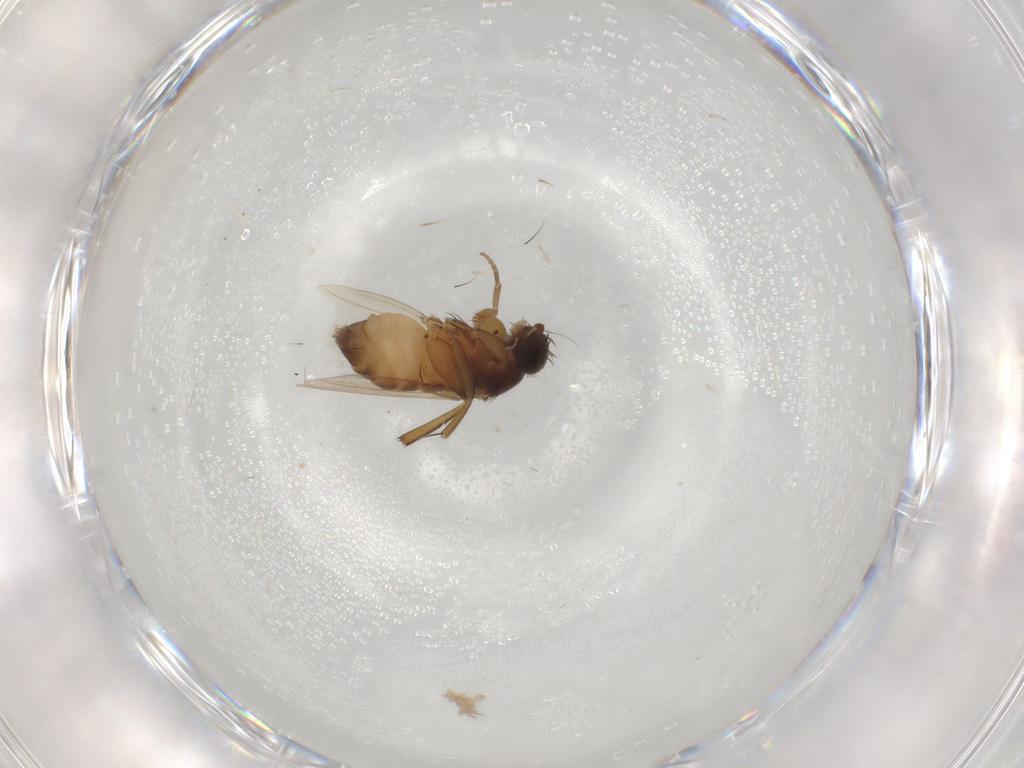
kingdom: Animalia
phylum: Arthropoda
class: Insecta
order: Diptera
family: Phoridae
